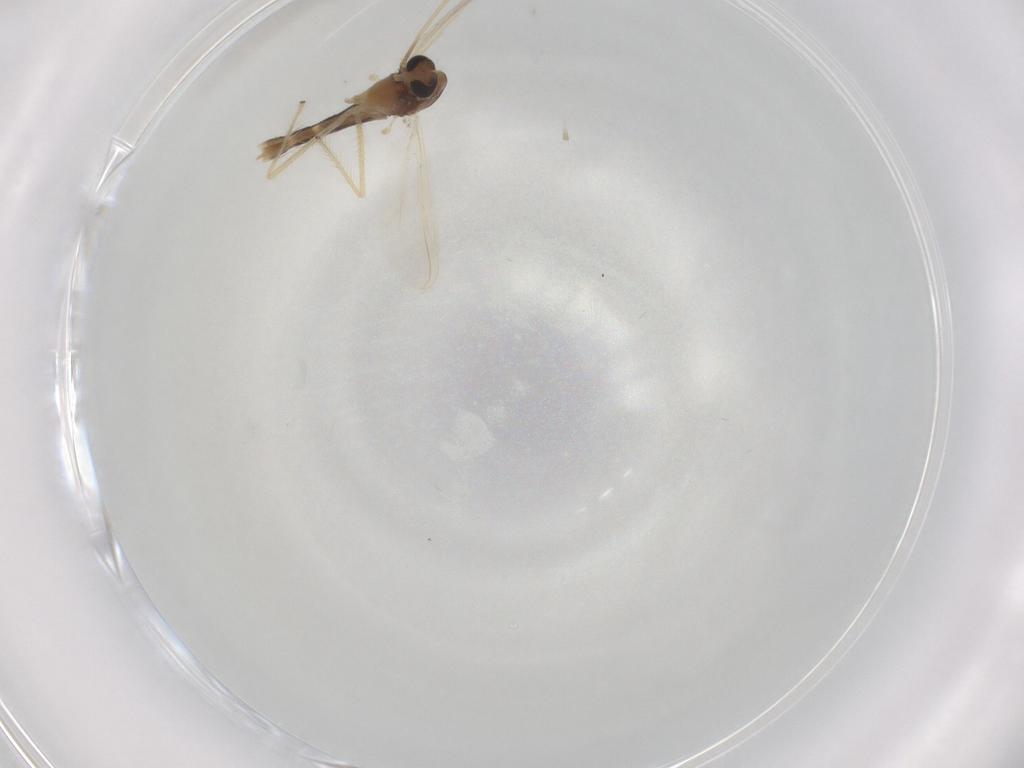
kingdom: Animalia
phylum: Arthropoda
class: Insecta
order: Diptera
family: Chironomidae
